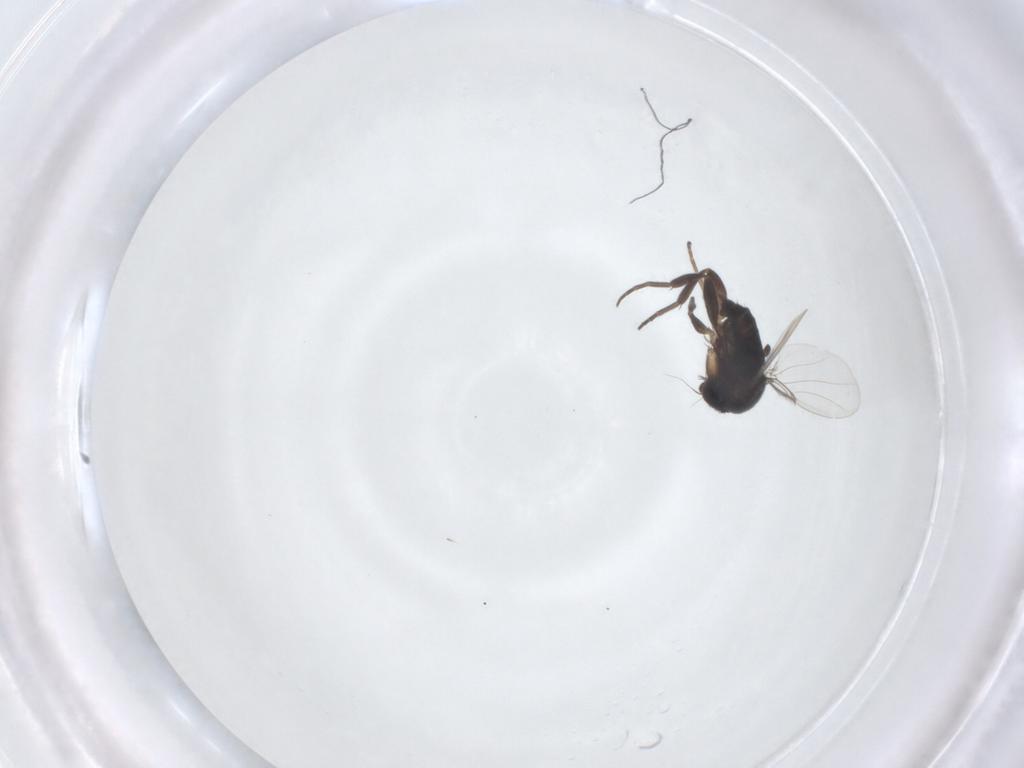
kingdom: Animalia
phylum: Arthropoda
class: Insecta
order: Diptera
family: Phoridae
